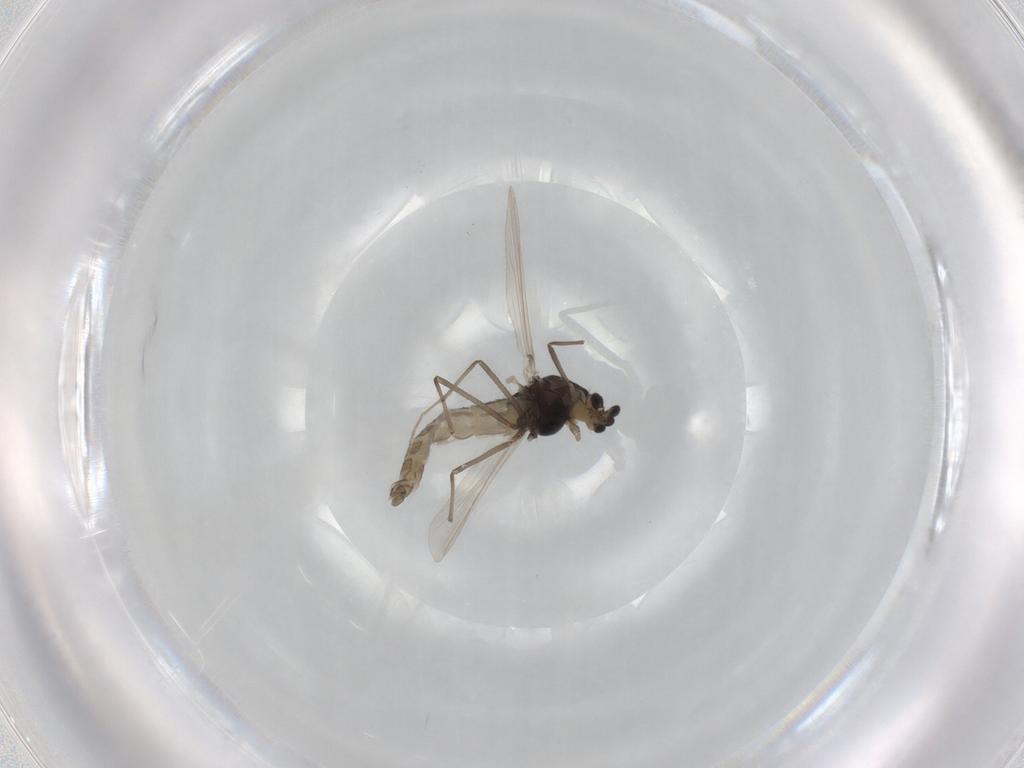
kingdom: Animalia
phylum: Arthropoda
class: Insecta
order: Diptera
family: Chironomidae
